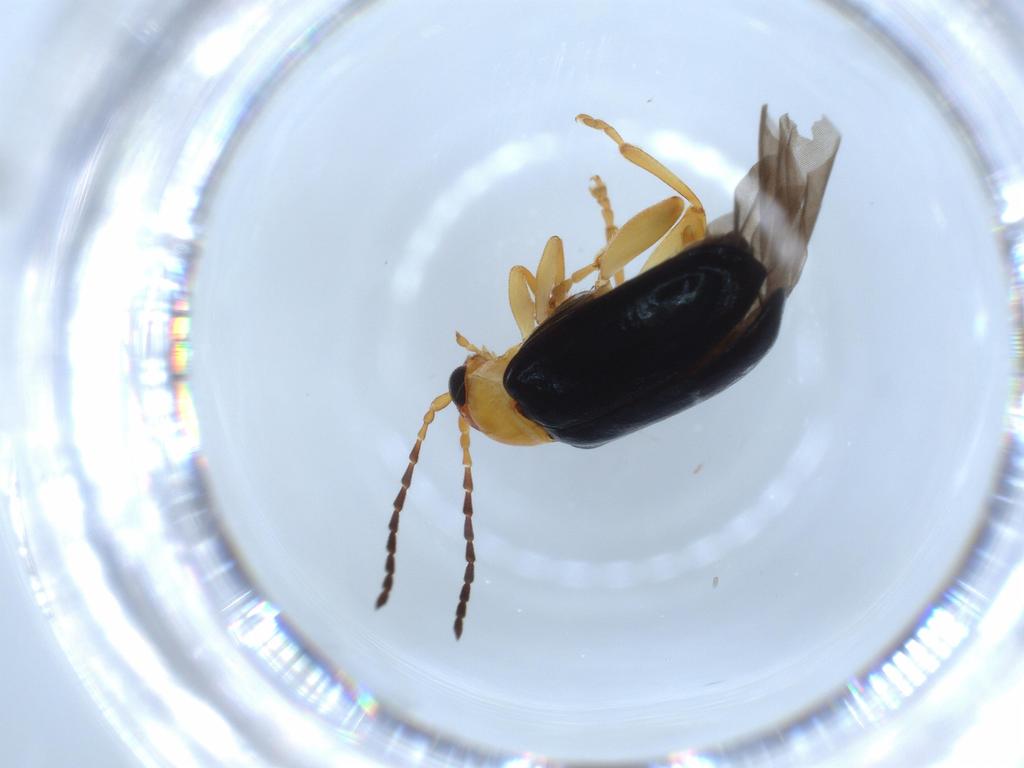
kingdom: Animalia
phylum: Arthropoda
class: Insecta
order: Coleoptera
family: Chrysomelidae
